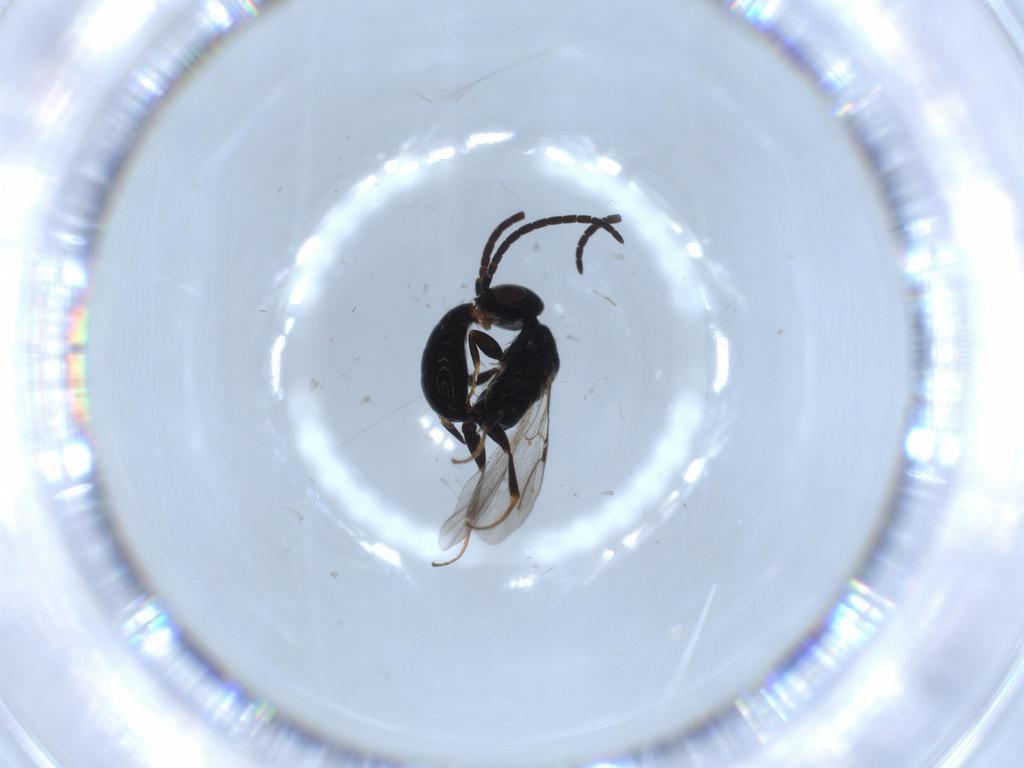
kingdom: Animalia
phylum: Arthropoda
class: Insecta
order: Hymenoptera
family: Bethylidae
